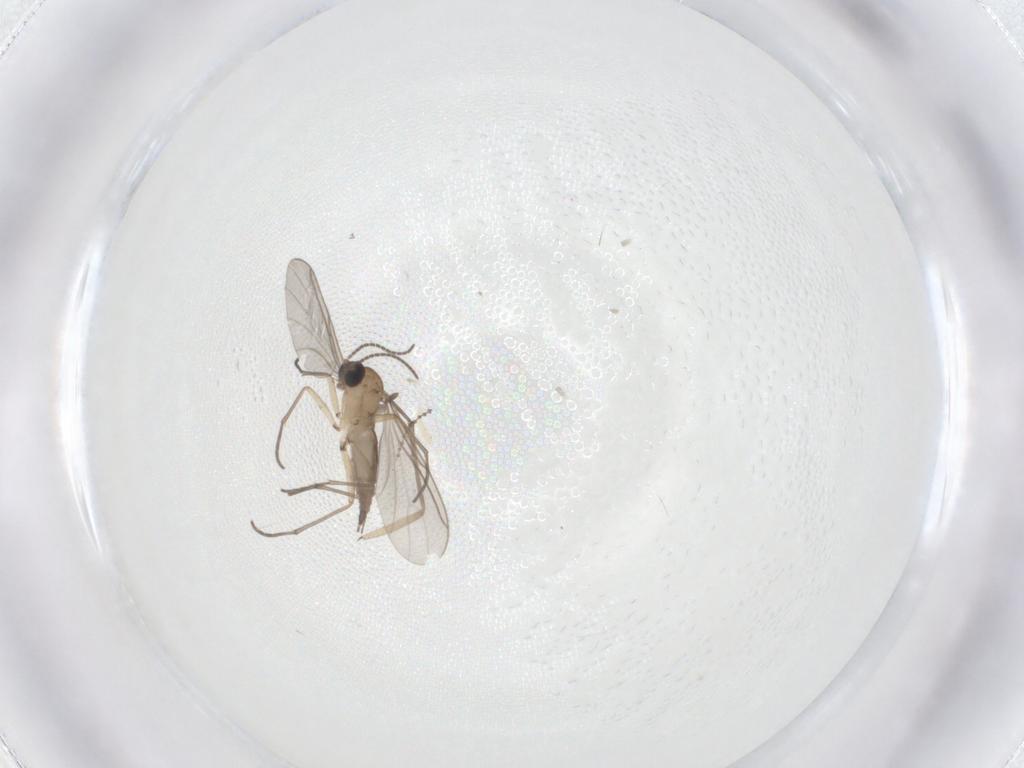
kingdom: Animalia
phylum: Arthropoda
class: Insecta
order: Diptera
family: Sciaridae
